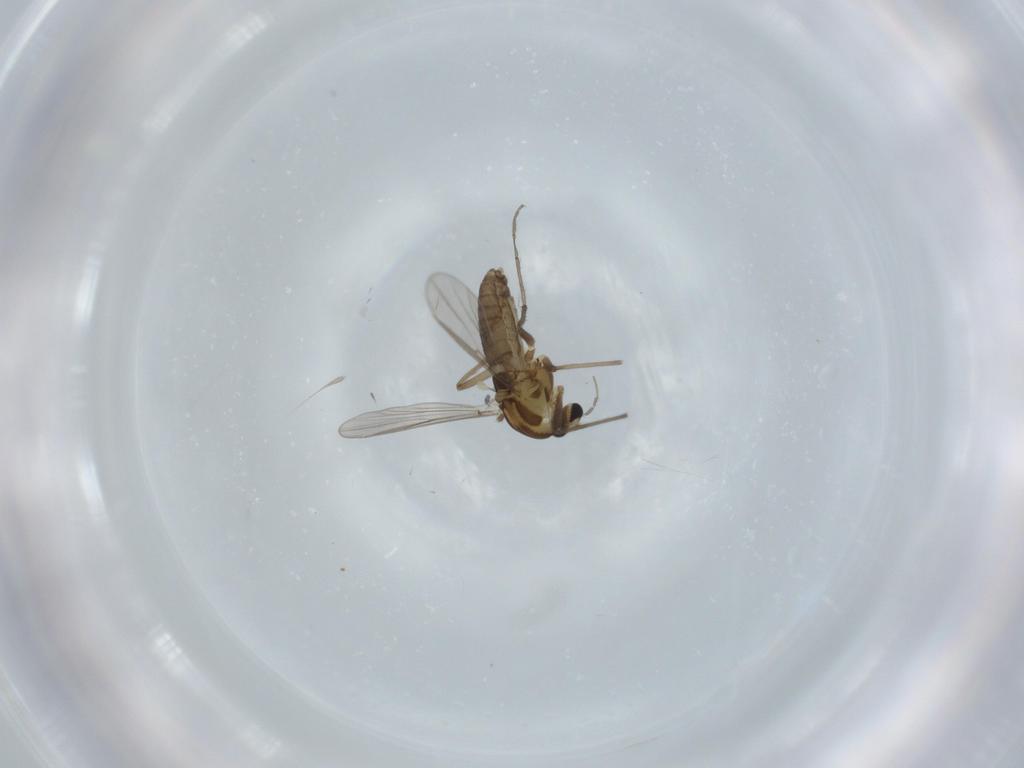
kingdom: Animalia
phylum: Arthropoda
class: Insecta
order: Diptera
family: Chironomidae
